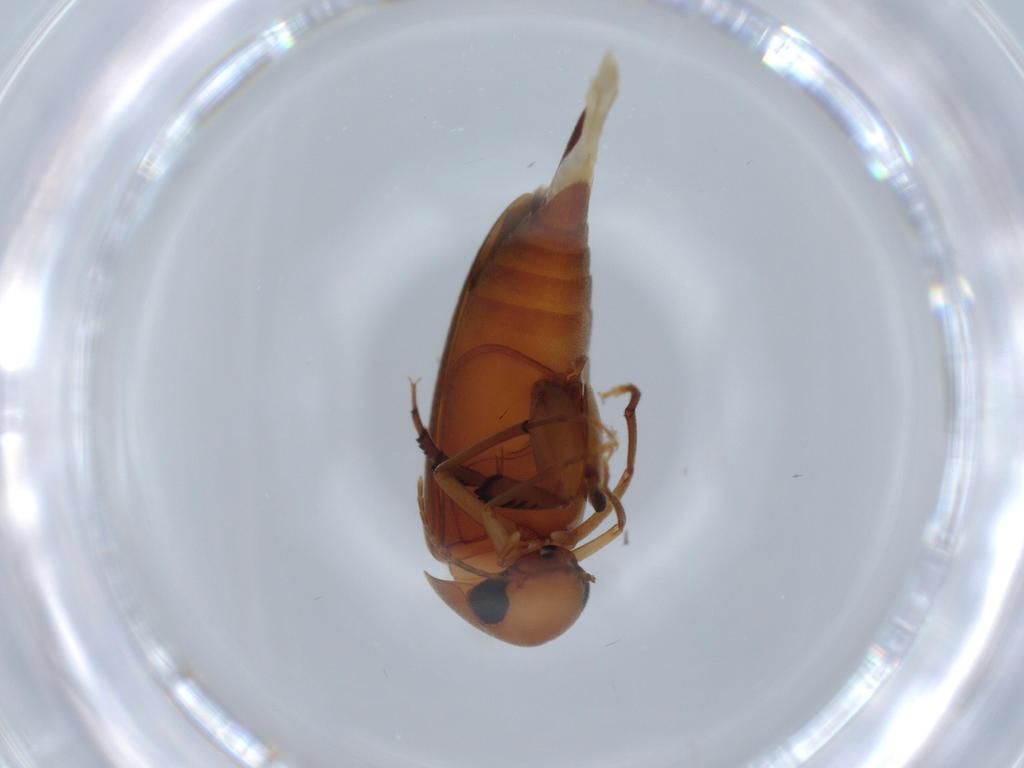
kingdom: Animalia
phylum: Arthropoda
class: Insecta
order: Coleoptera
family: Mordellidae
